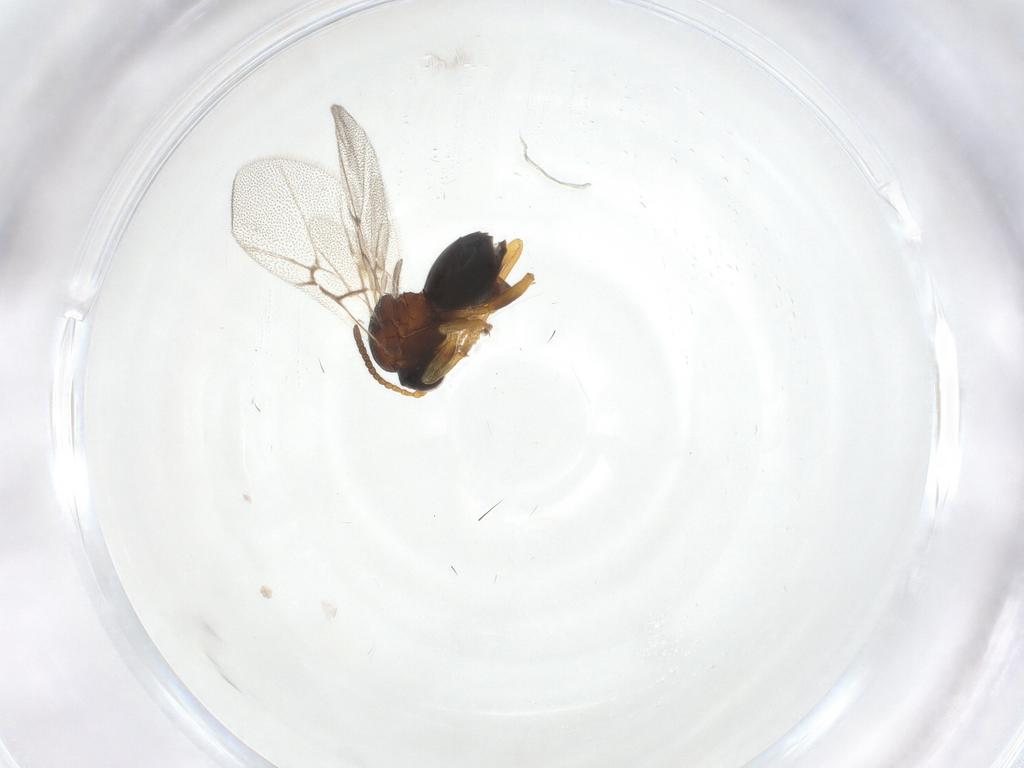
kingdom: Animalia
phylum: Arthropoda
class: Insecta
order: Hymenoptera
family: Cynipidae
